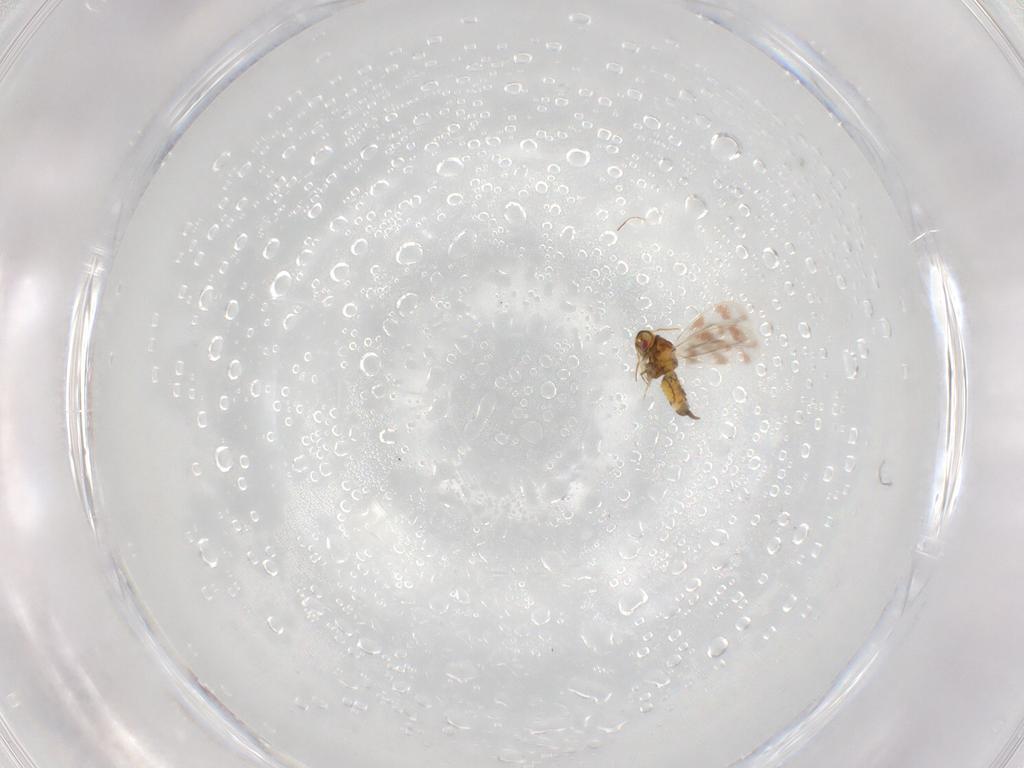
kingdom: Animalia
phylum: Arthropoda
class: Insecta
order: Hemiptera
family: Aleyrodidae
